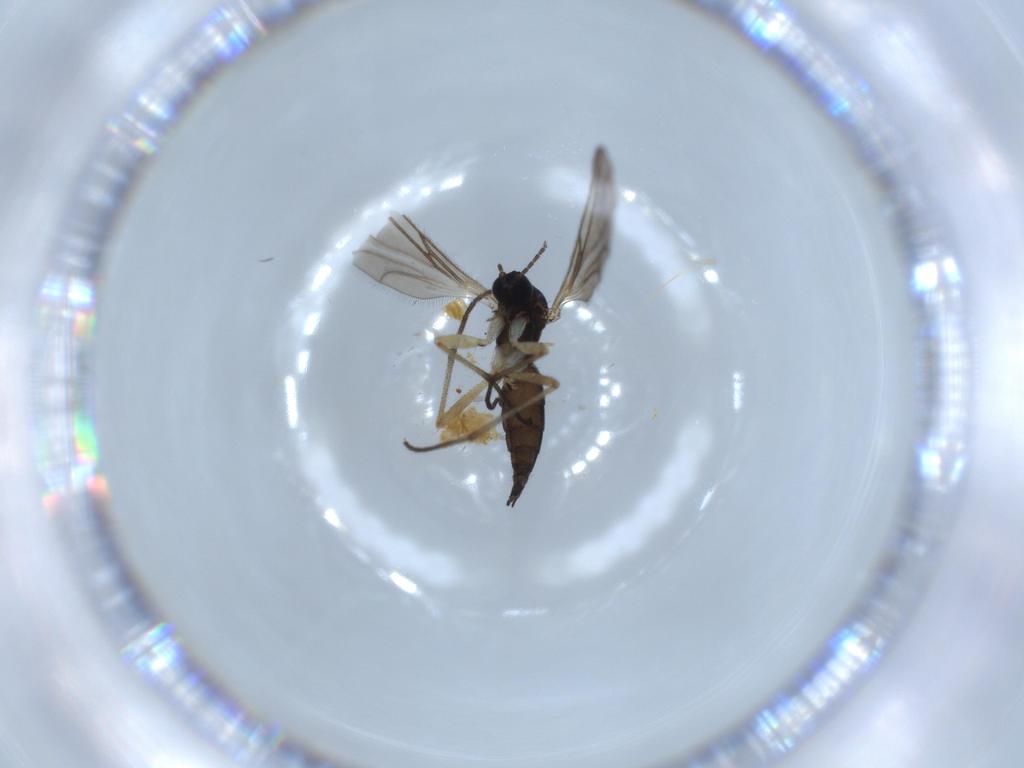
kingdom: Animalia
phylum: Arthropoda
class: Insecta
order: Diptera
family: Sciaridae
